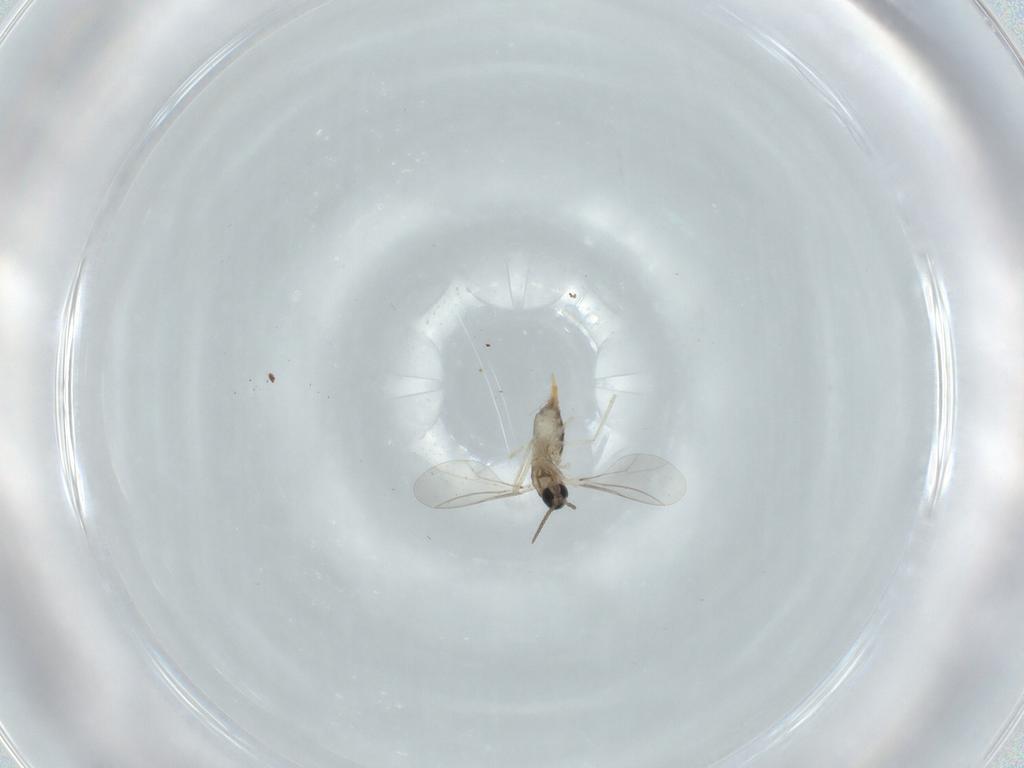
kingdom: Animalia
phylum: Arthropoda
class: Insecta
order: Diptera
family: Cecidomyiidae
